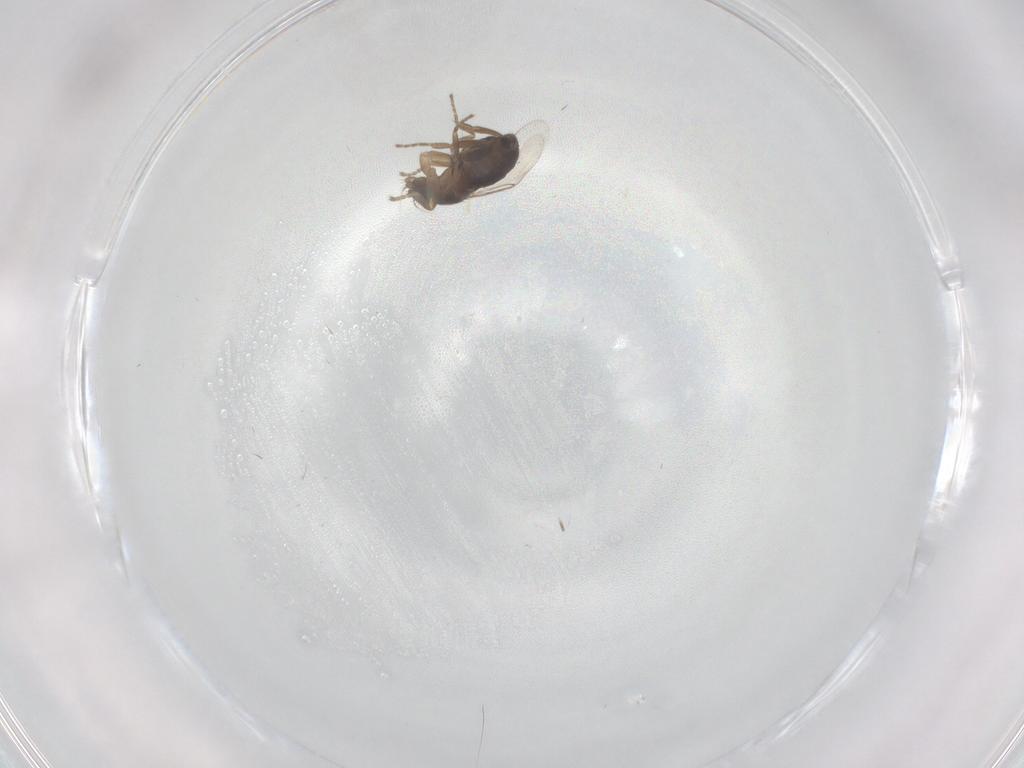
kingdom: Animalia
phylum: Arthropoda
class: Insecta
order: Diptera
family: Phoridae
